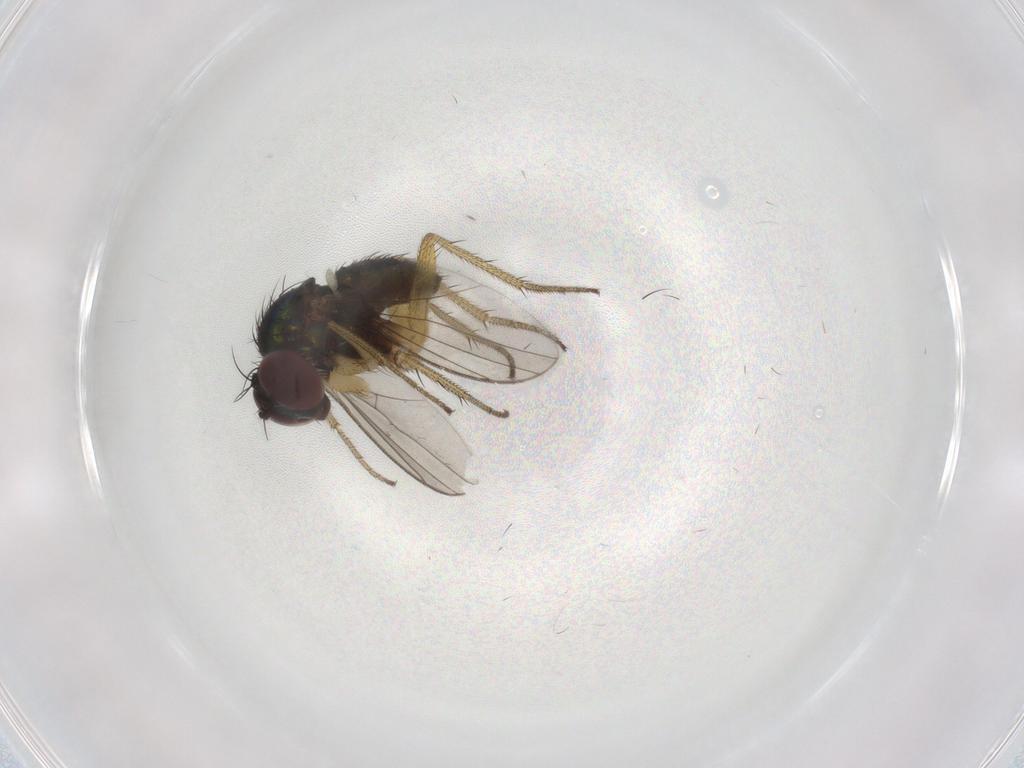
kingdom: Animalia
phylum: Arthropoda
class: Insecta
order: Diptera
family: Dolichopodidae
